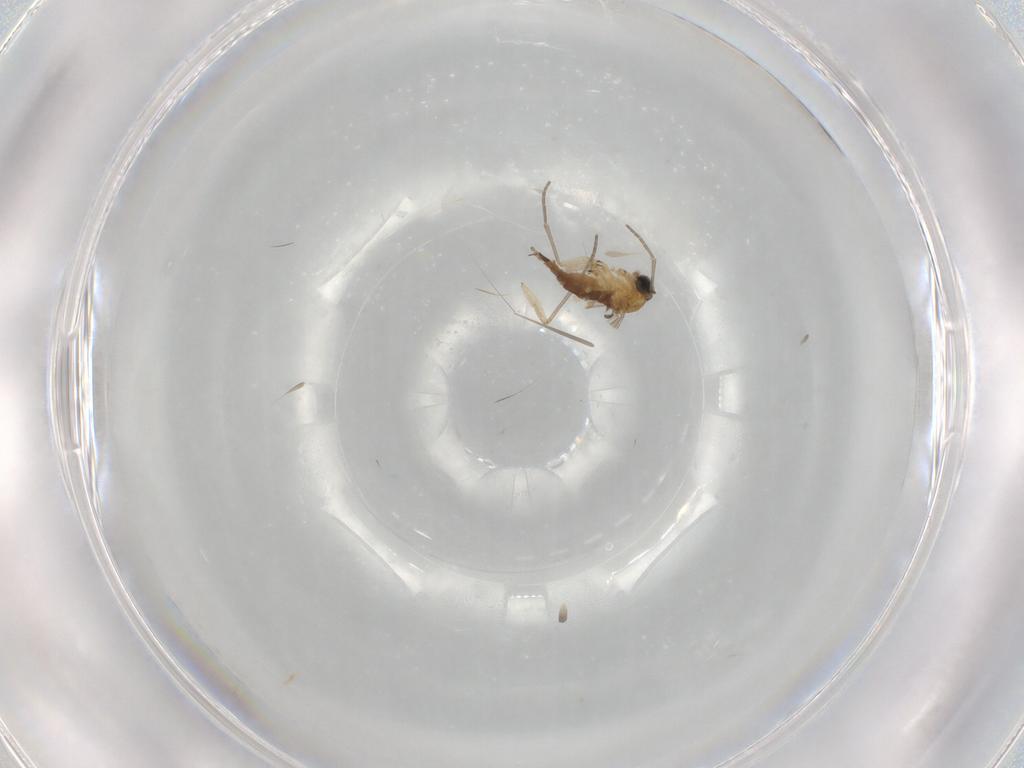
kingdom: Animalia
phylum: Arthropoda
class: Insecta
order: Diptera
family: Sciaridae
